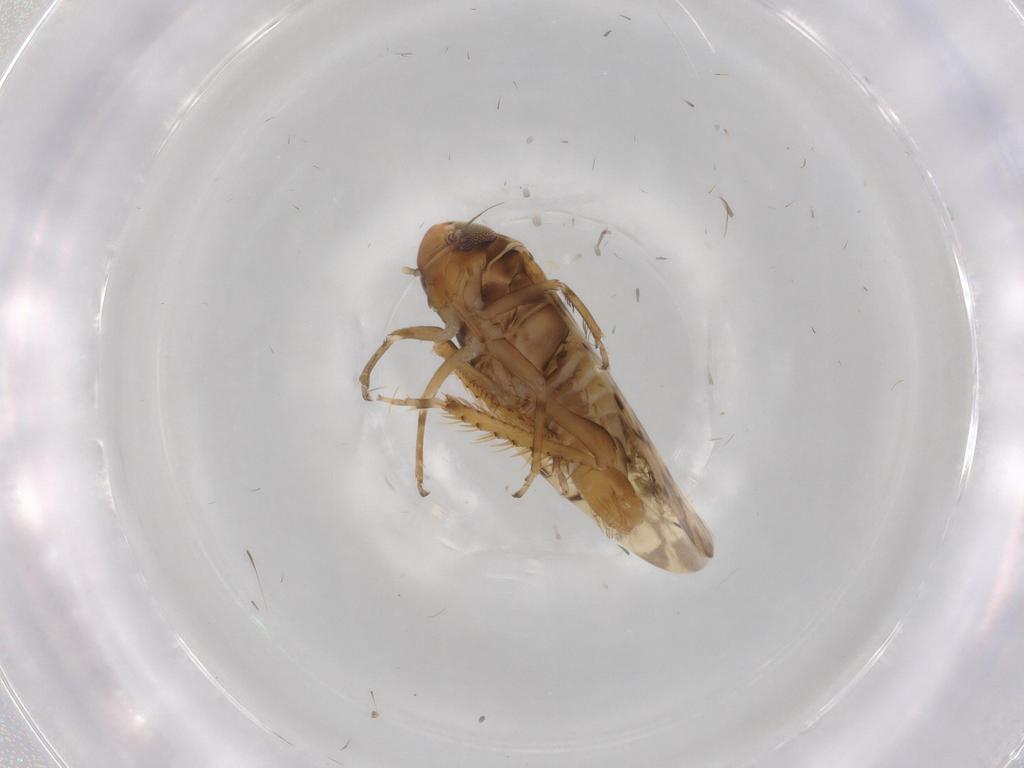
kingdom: Animalia
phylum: Arthropoda
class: Insecta
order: Hemiptera
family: Cicadellidae
